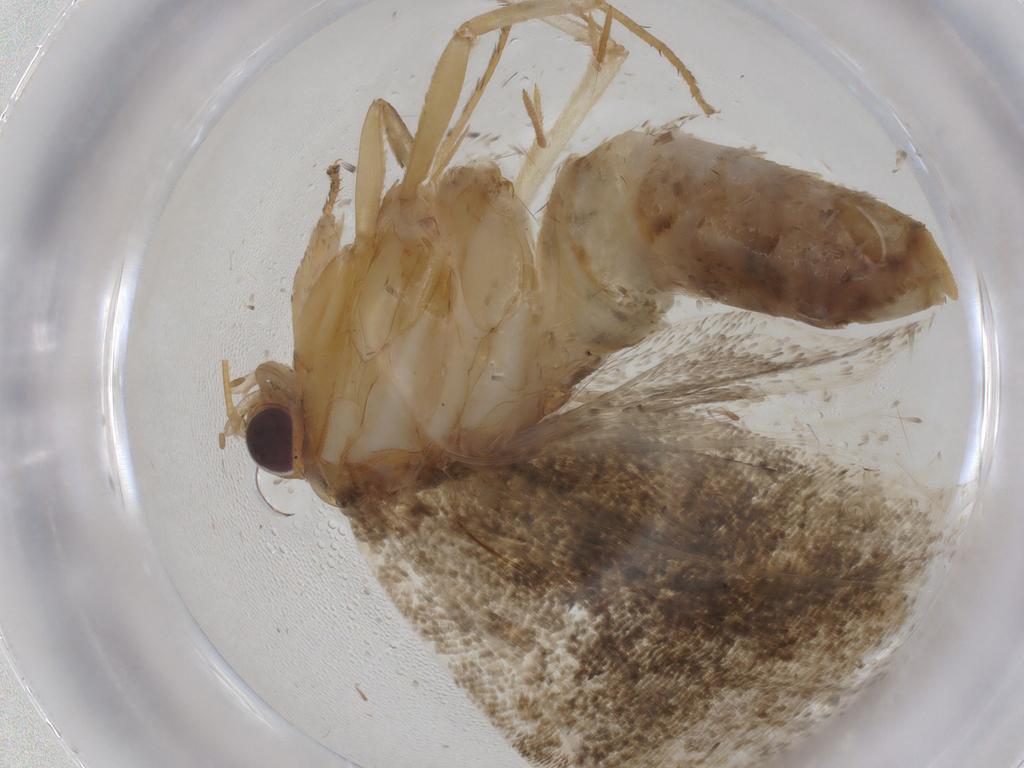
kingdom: Animalia
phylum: Arthropoda
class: Insecta
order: Lepidoptera
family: Tortricidae
